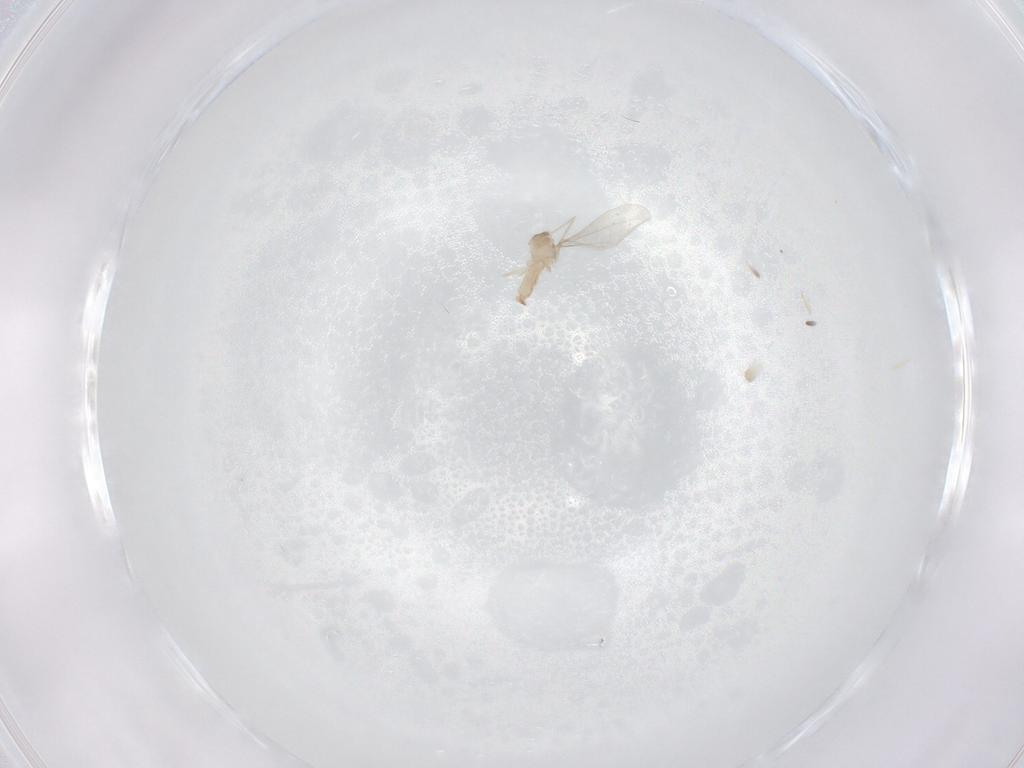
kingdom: Animalia
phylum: Arthropoda
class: Insecta
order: Diptera
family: Cecidomyiidae
